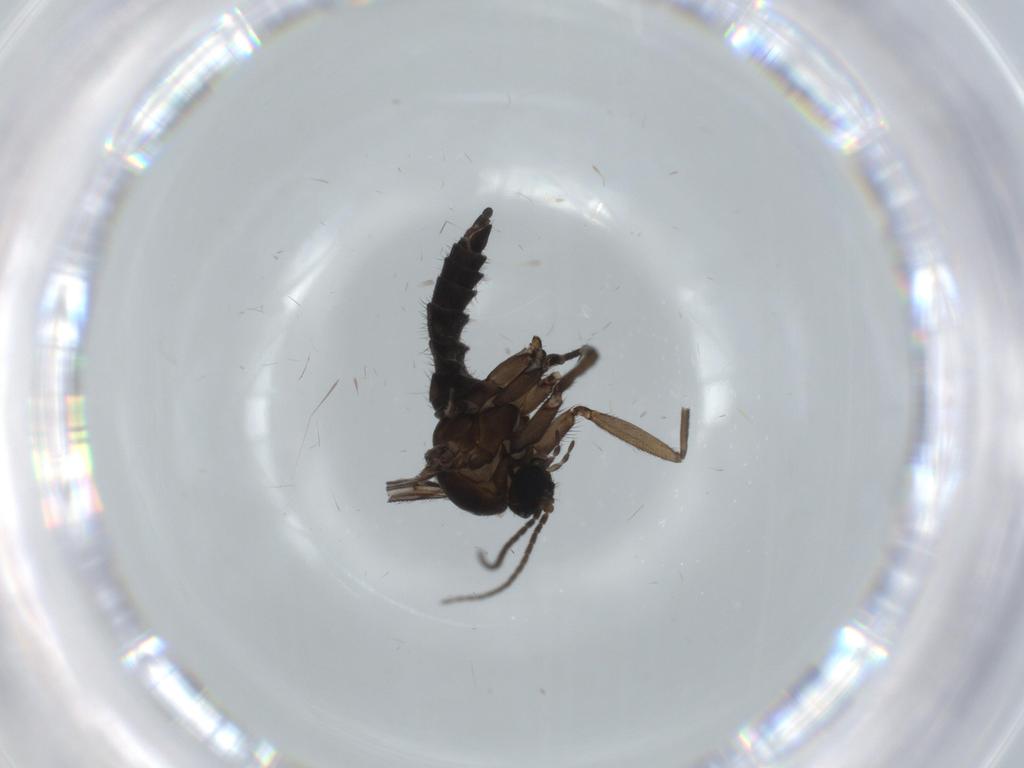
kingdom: Animalia
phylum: Arthropoda
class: Insecta
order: Diptera
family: Sciaridae
